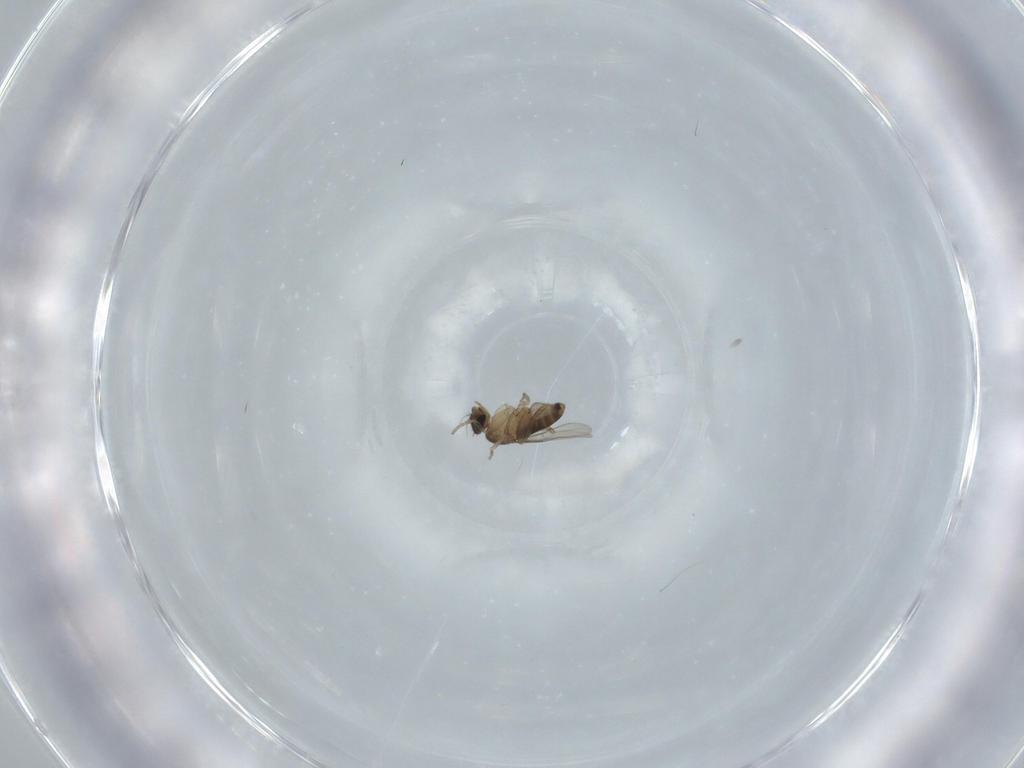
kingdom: Animalia
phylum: Arthropoda
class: Insecta
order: Diptera
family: Phoridae
